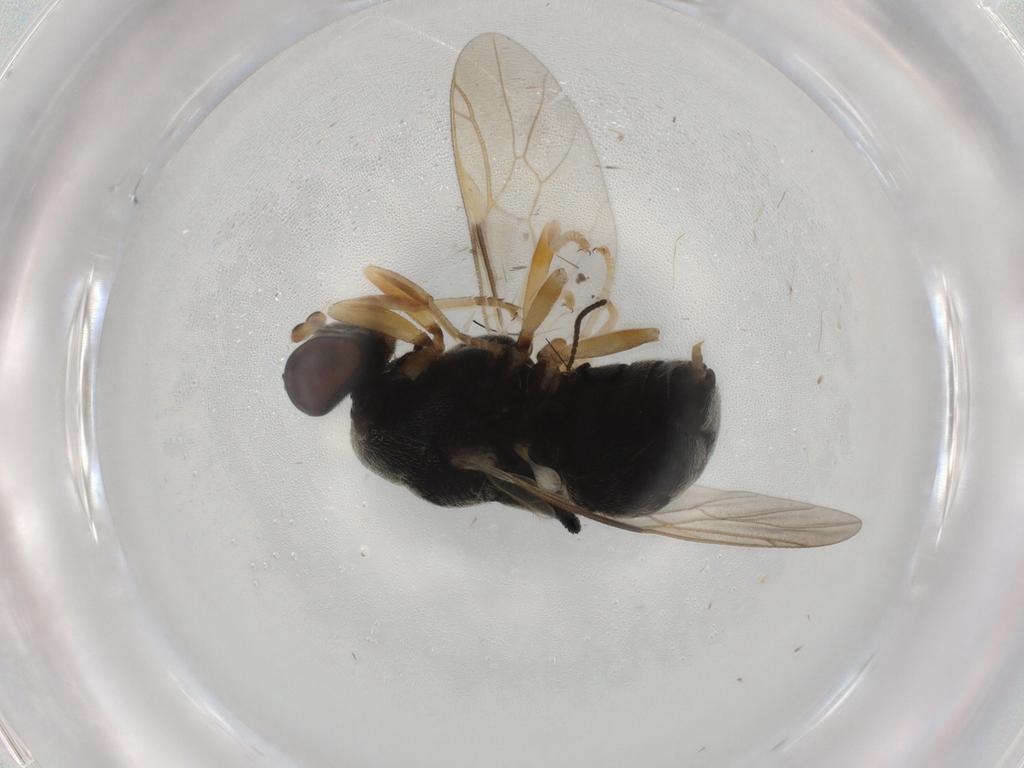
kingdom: Animalia
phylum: Arthropoda
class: Insecta
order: Diptera
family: Stratiomyidae
